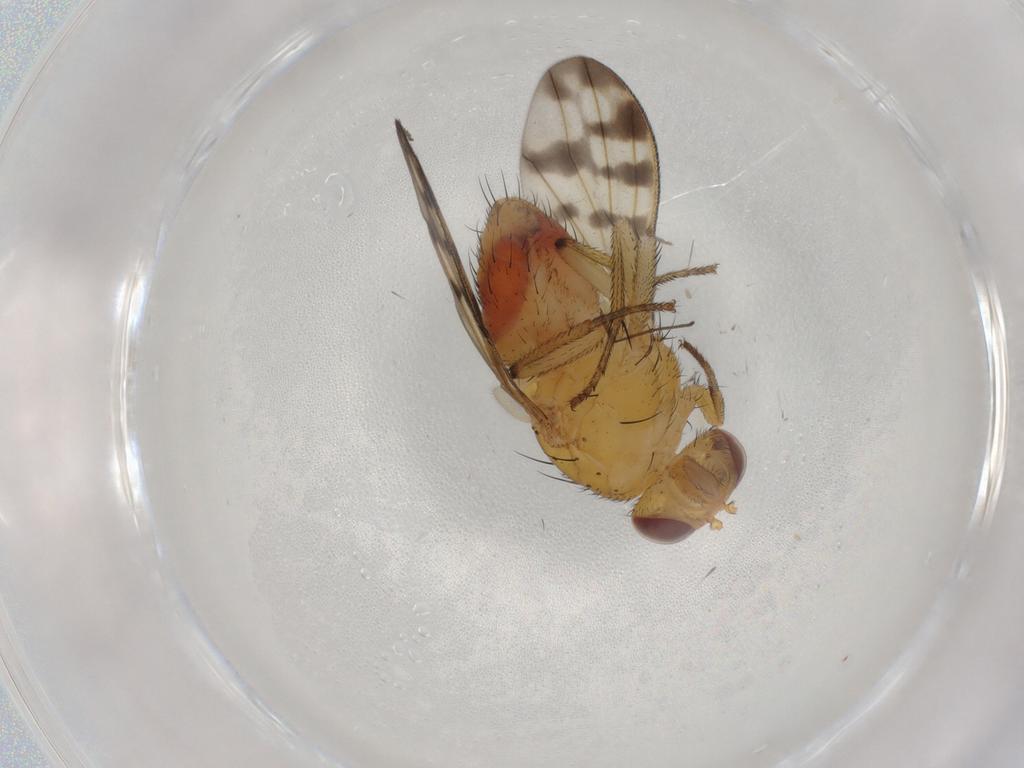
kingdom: Animalia
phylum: Arthropoda
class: Insecta
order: Diptera
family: Sciaridae
